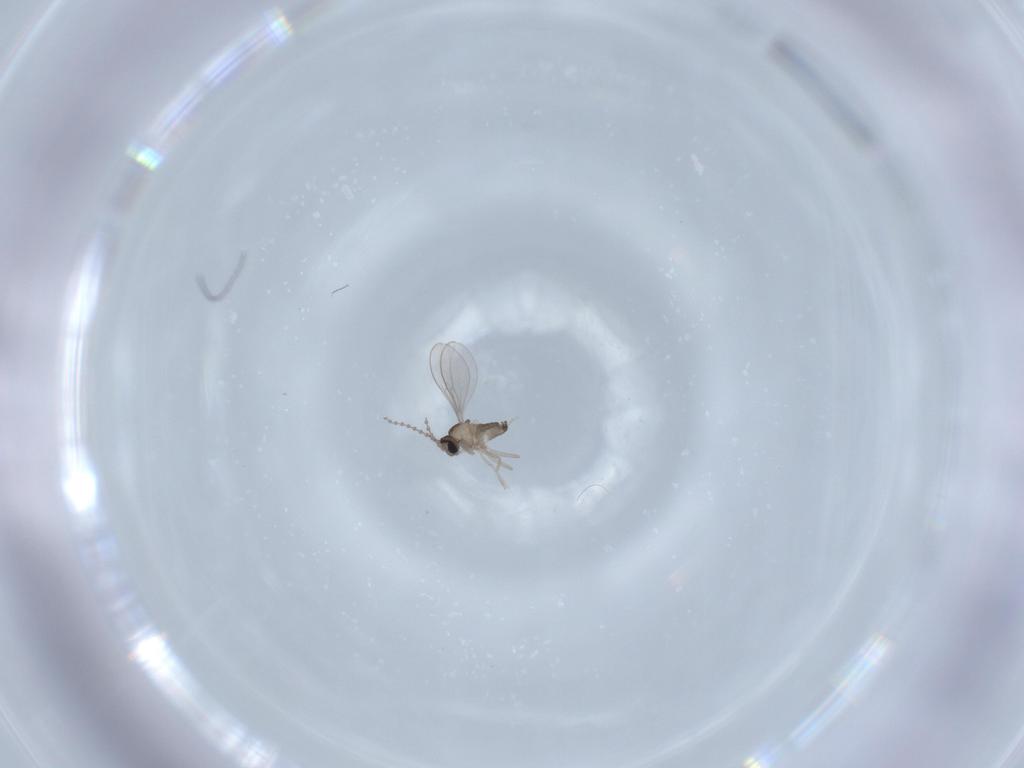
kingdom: Animalia
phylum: Arthropoda
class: Insecta
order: Diptera
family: Cecidomyiidae
